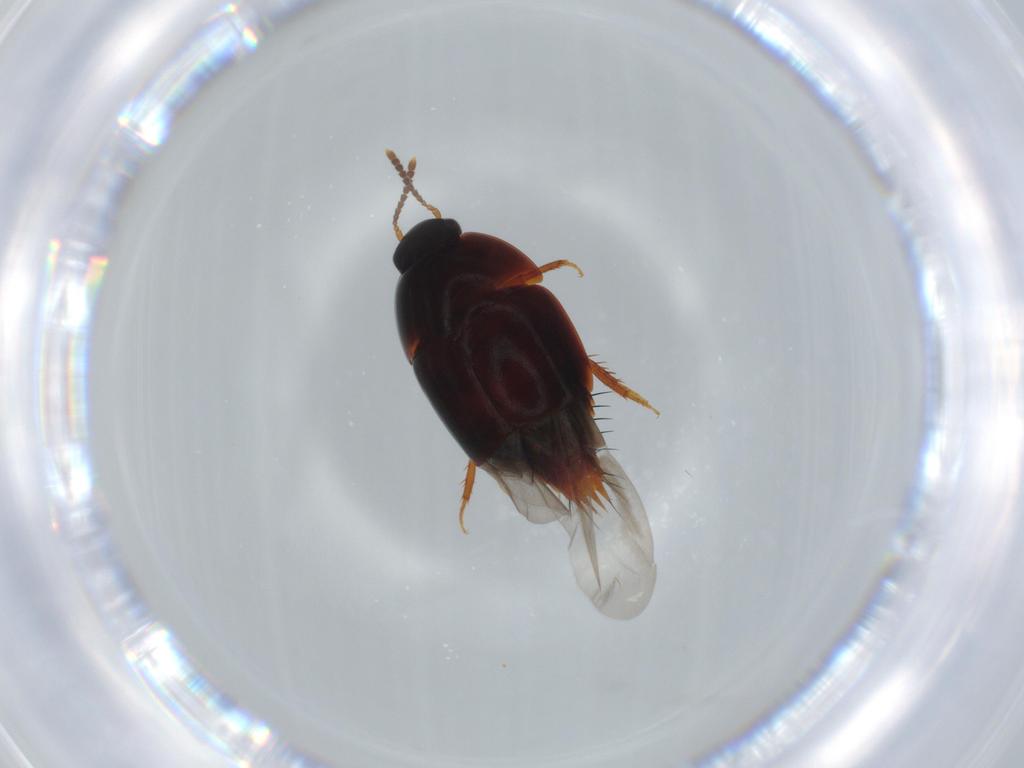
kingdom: Animalia
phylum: Arthropoda
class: Insecta
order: Coleoptera
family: Staphylinidae
